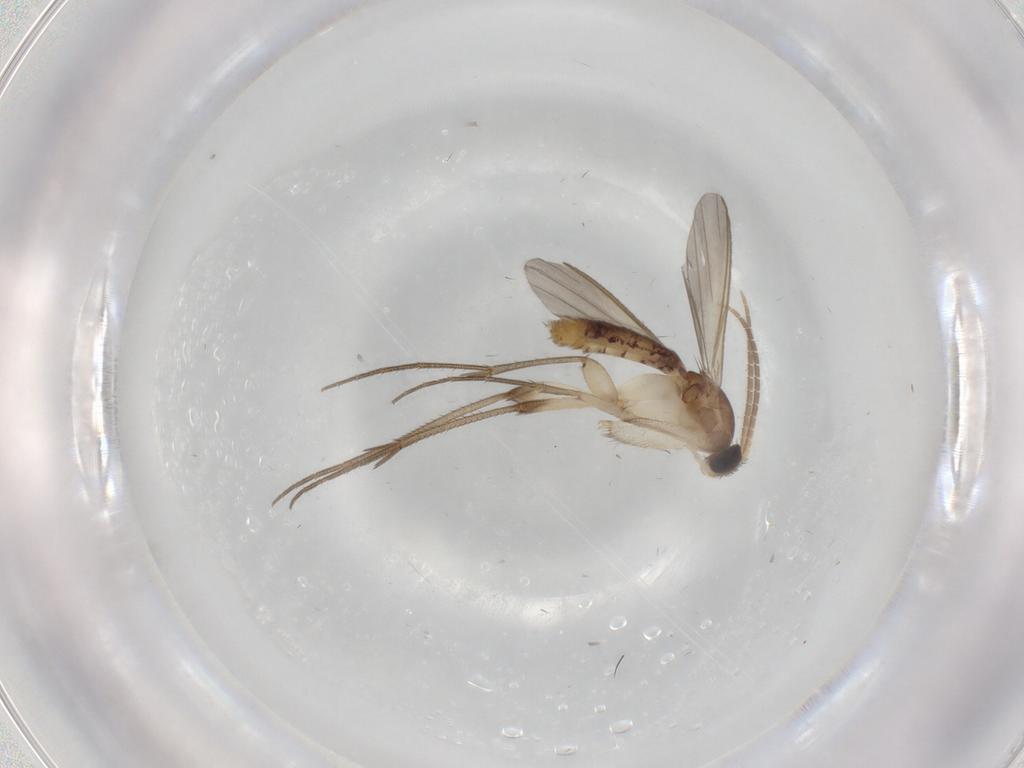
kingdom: Animalia
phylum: Arthropoda
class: Insecta
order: Diptera
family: Mycetophilidae
